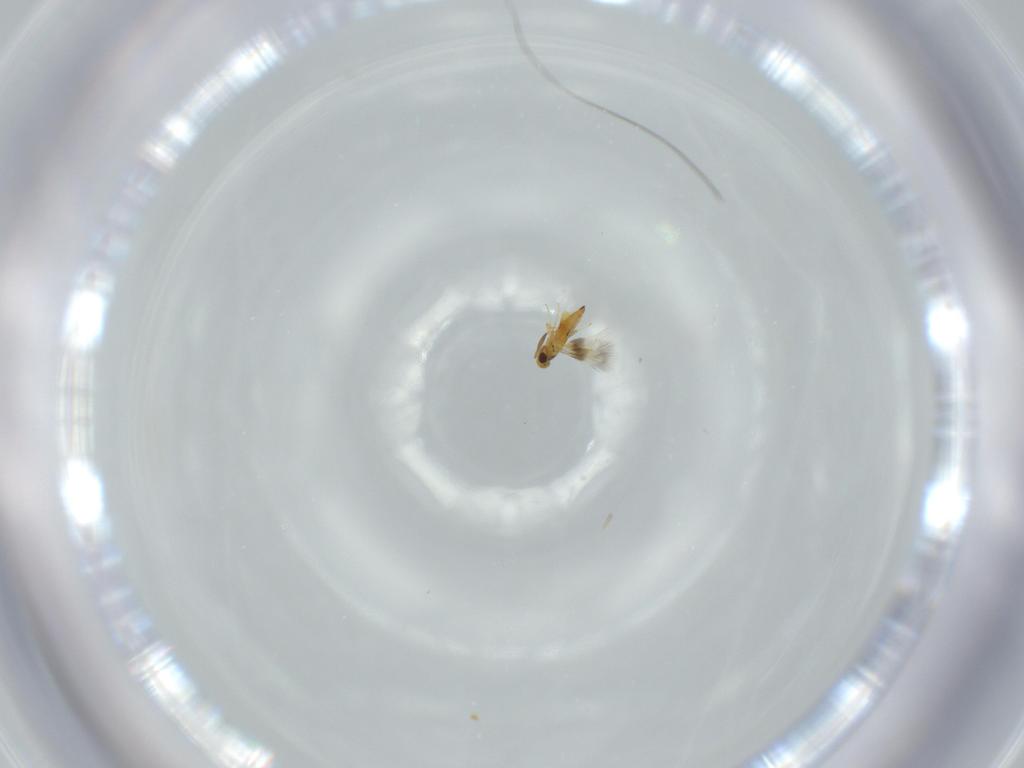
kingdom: Animalia
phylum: Arthropoda
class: Insecta
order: Hymenoptera
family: Signiphoridae
